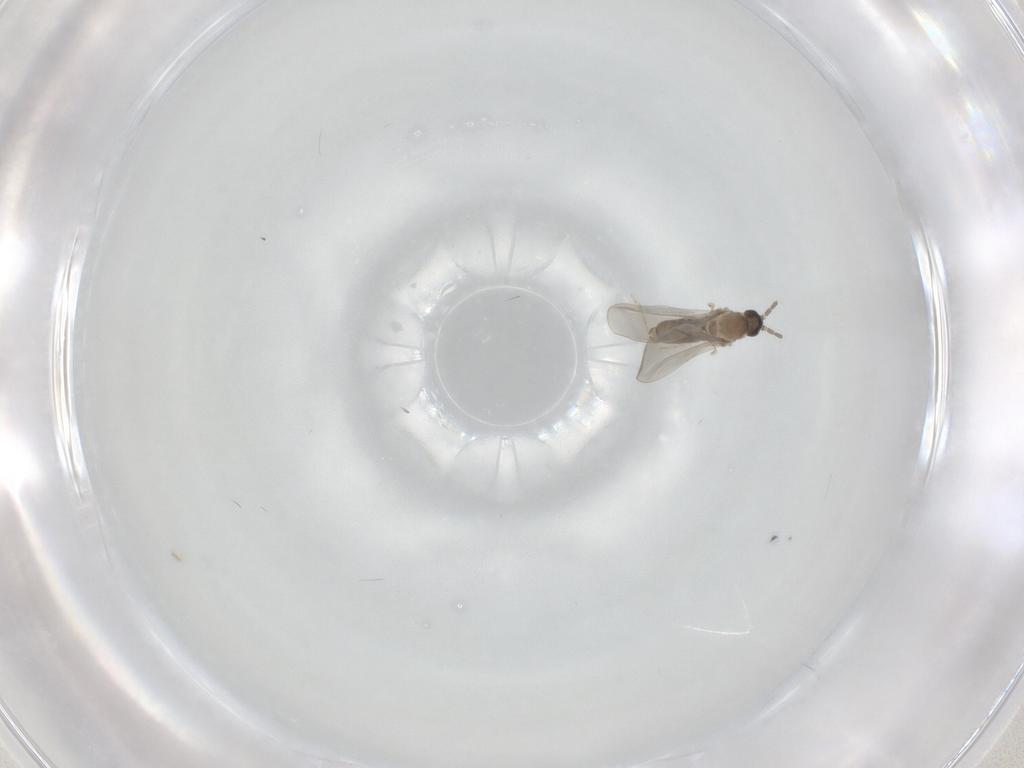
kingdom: Animalia
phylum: Arthropoda
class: Insecta
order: Diptera
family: Cecidomyiidae
